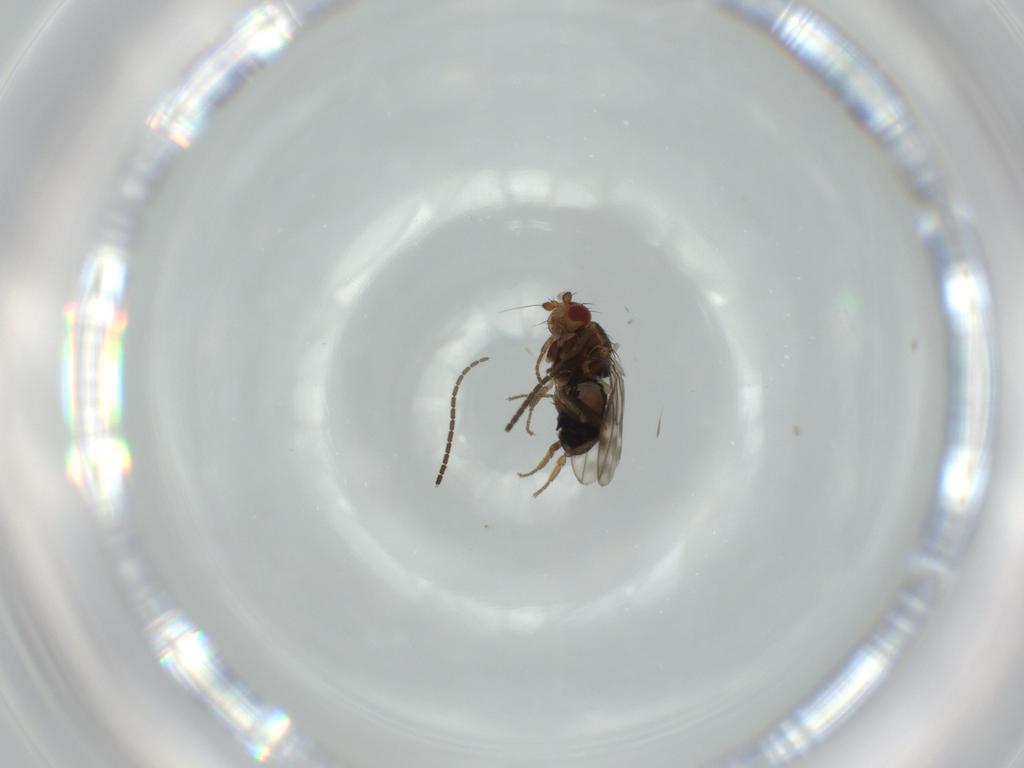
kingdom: Animalia
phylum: Arthropoda
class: Insecta
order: Diptera
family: Sphaeroceridae
